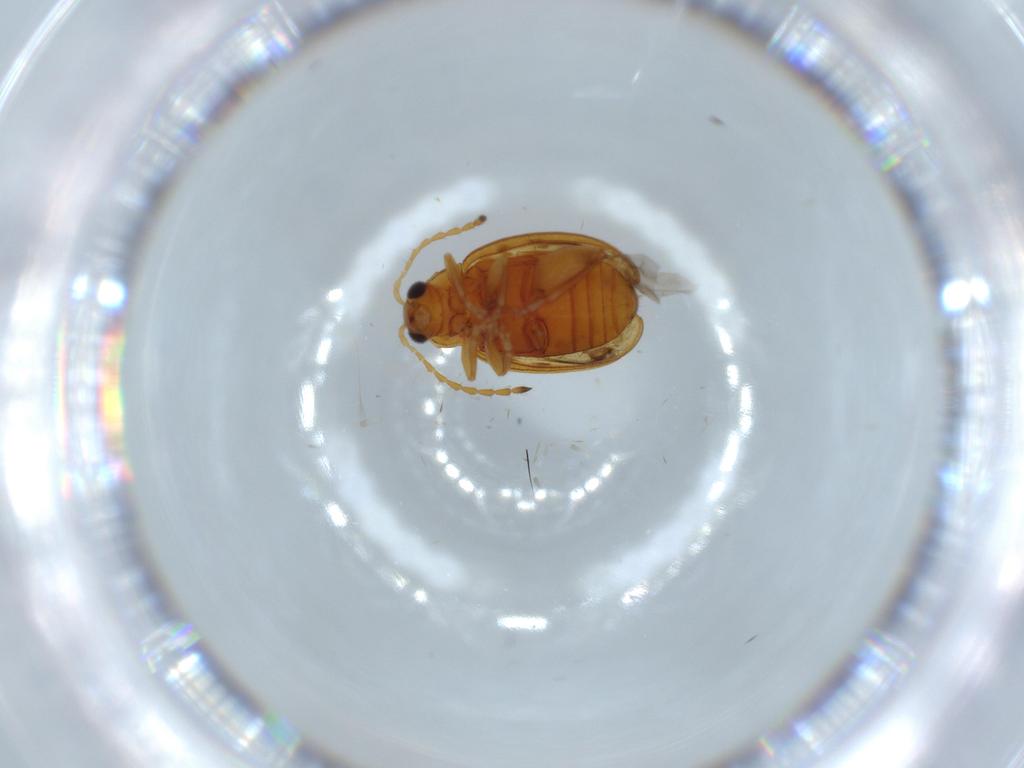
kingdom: Animalia
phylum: Arthropoda
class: Insecta
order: Coleoptera
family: Chrysomelidae
